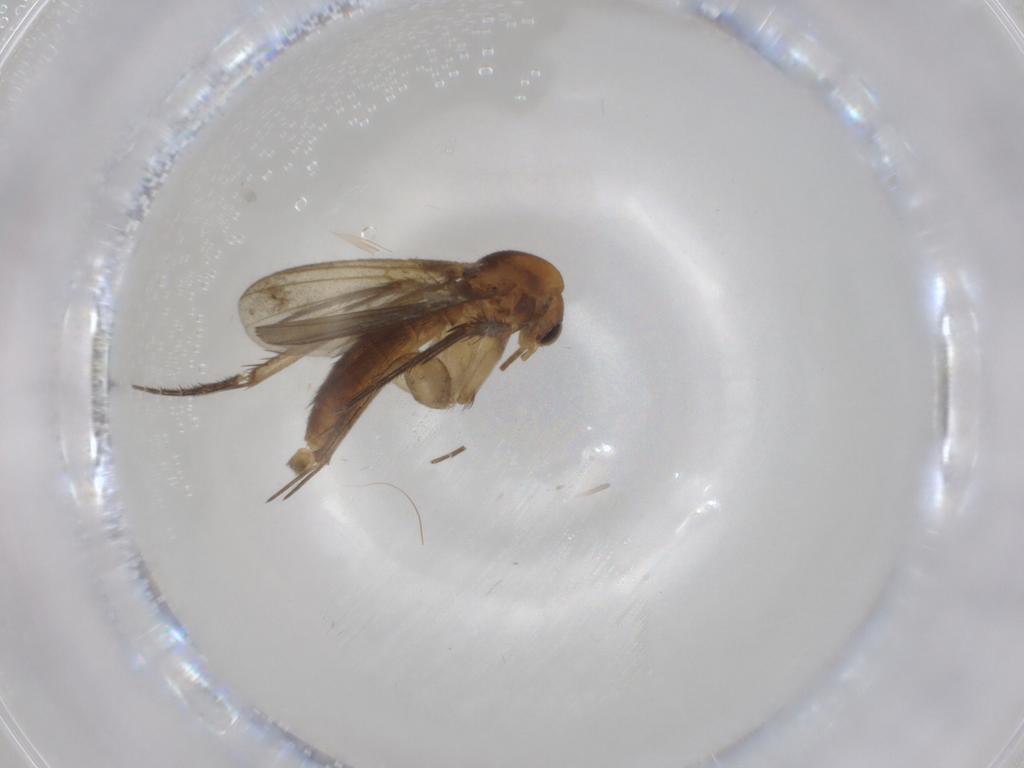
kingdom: Animalia
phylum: Arthropoda
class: Insecta
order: Diptera
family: Mycetophilidae
